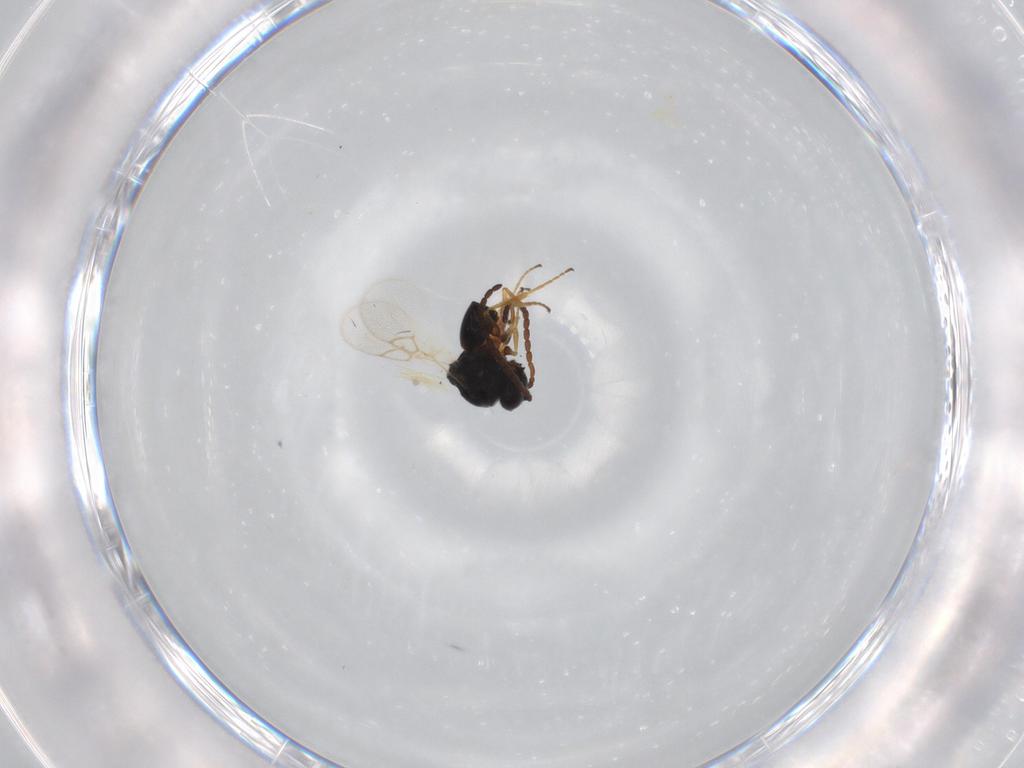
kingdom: Animalia
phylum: Arthropoda
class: Insecta
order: Hymenoptera
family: Figitidae
